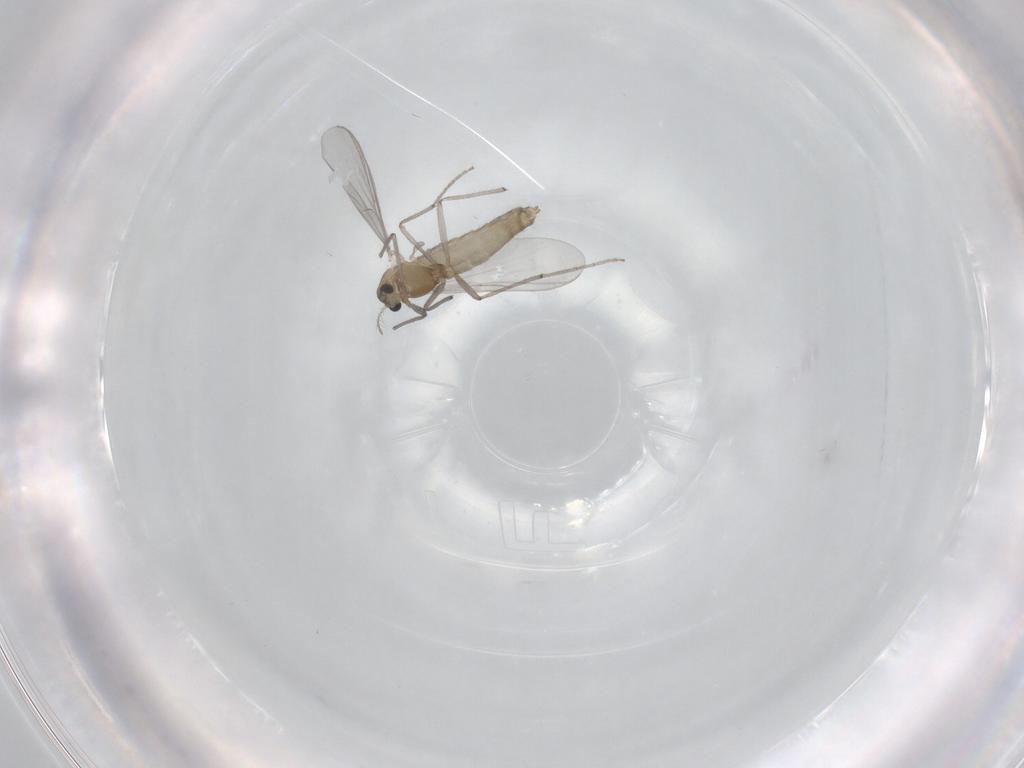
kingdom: Animalia
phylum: Arthropoda
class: Insecta
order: Diptera
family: Chironomidae
